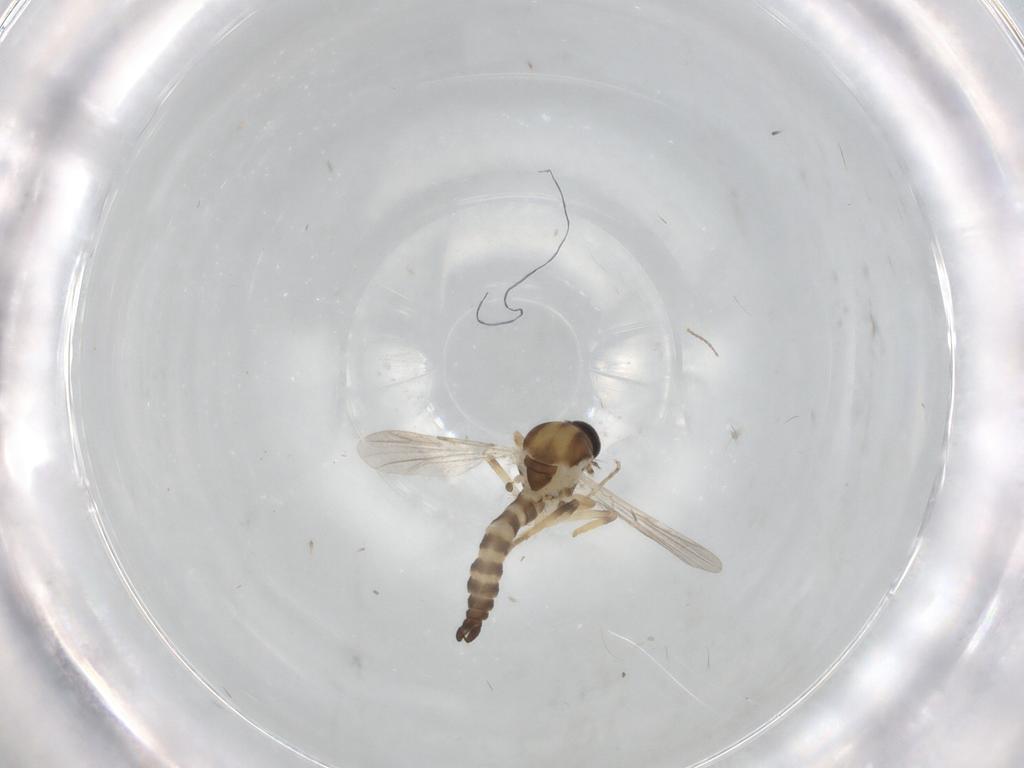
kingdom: Animalia
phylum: Arthropoda
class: Insecta
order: Diptera
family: Ceratopogonidae
